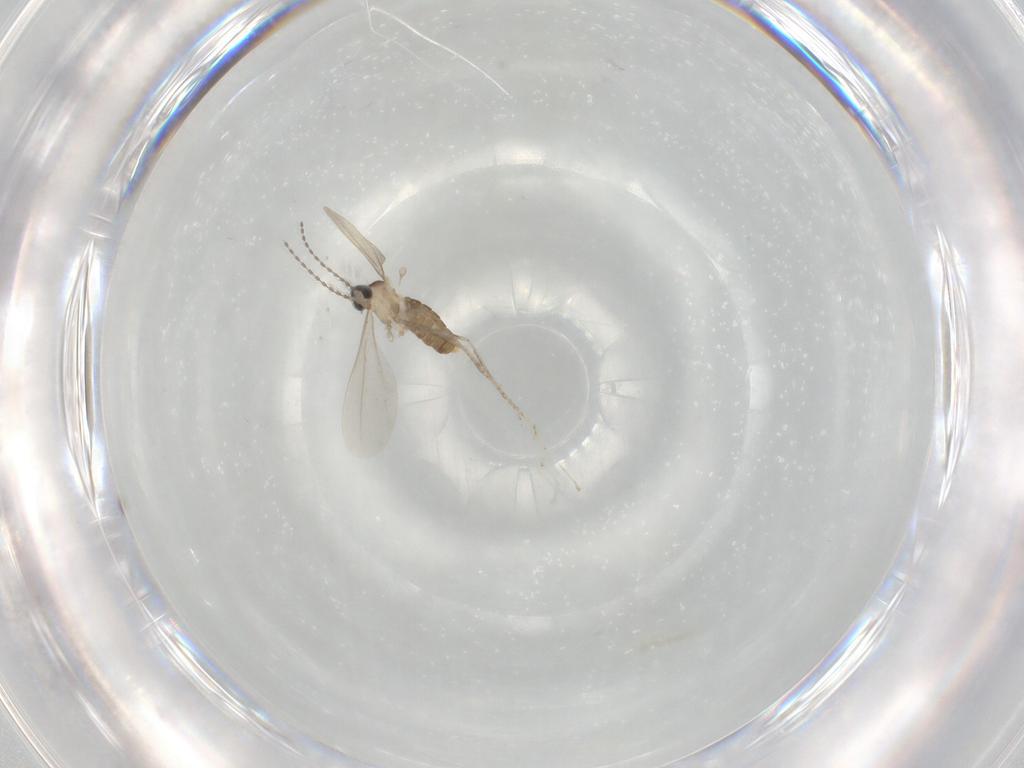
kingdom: Animalia
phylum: Arthropoda
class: Insecta
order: Diptera
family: Cecidomyiidae
